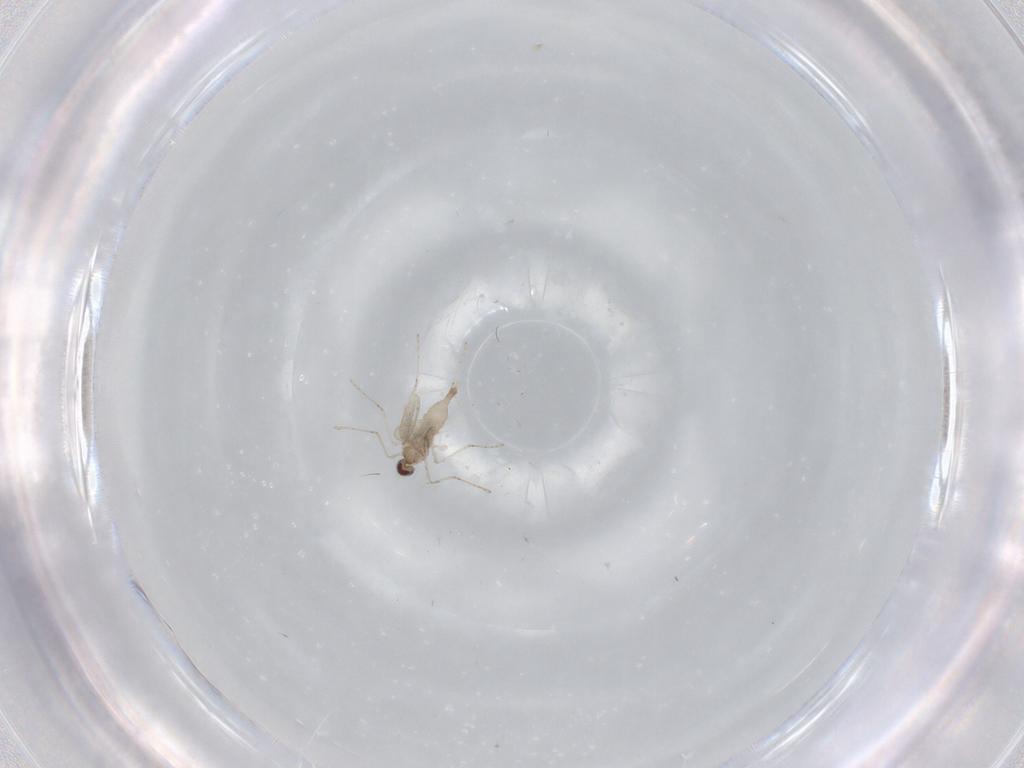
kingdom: Animalia
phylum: Arthropoda
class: Insecta
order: Diptera
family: Cecidomyiidae
